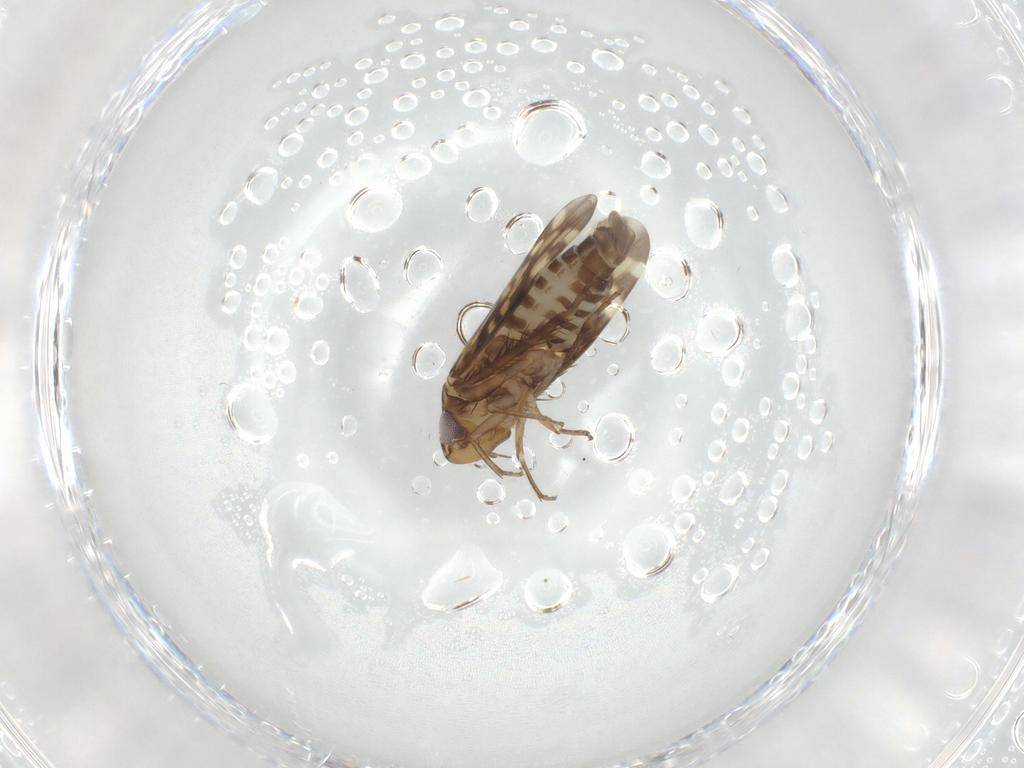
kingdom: Animalia
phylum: Arthropoda
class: Insecta
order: Hemiptera
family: Cicadellidae
